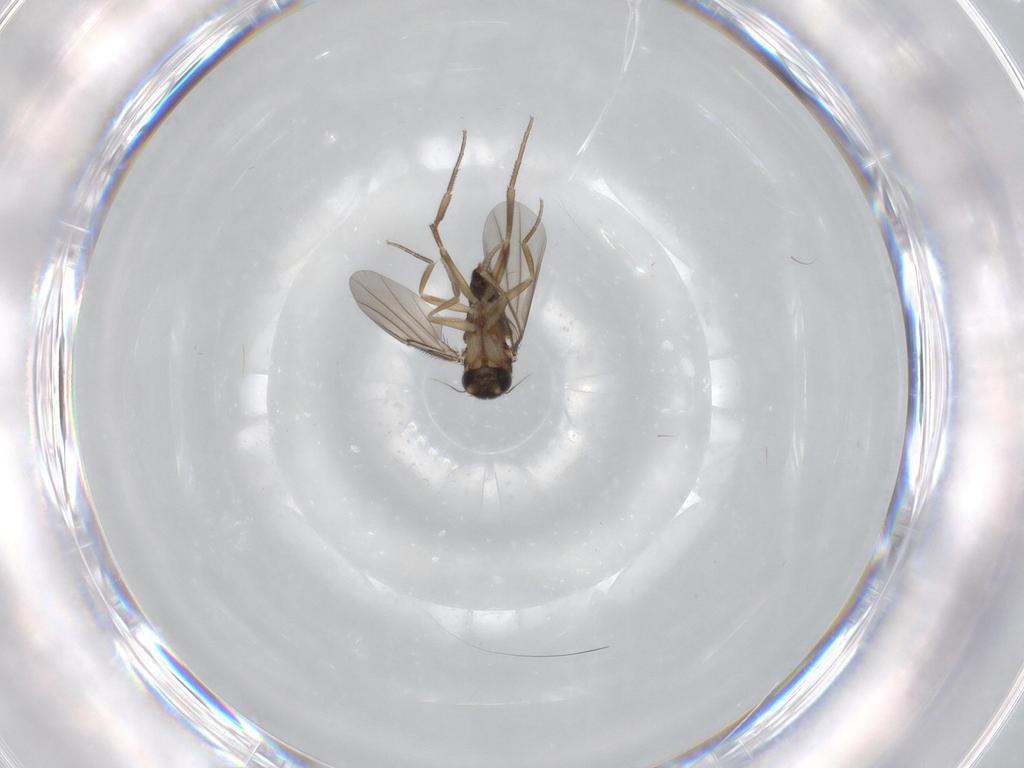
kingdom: Animalia
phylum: Arthropoda
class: Insecta
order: Diptera
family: Phoridae
